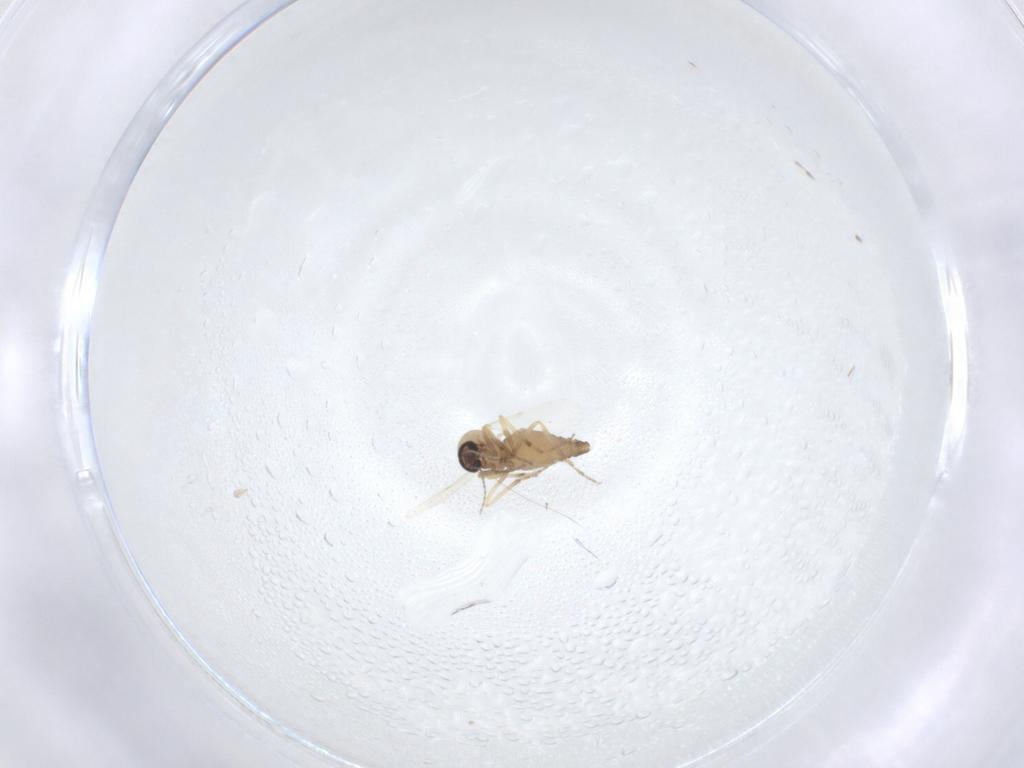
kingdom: Animalia
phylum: Arthropoda
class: Insecta
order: Diptera
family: Ceratopogonidae
